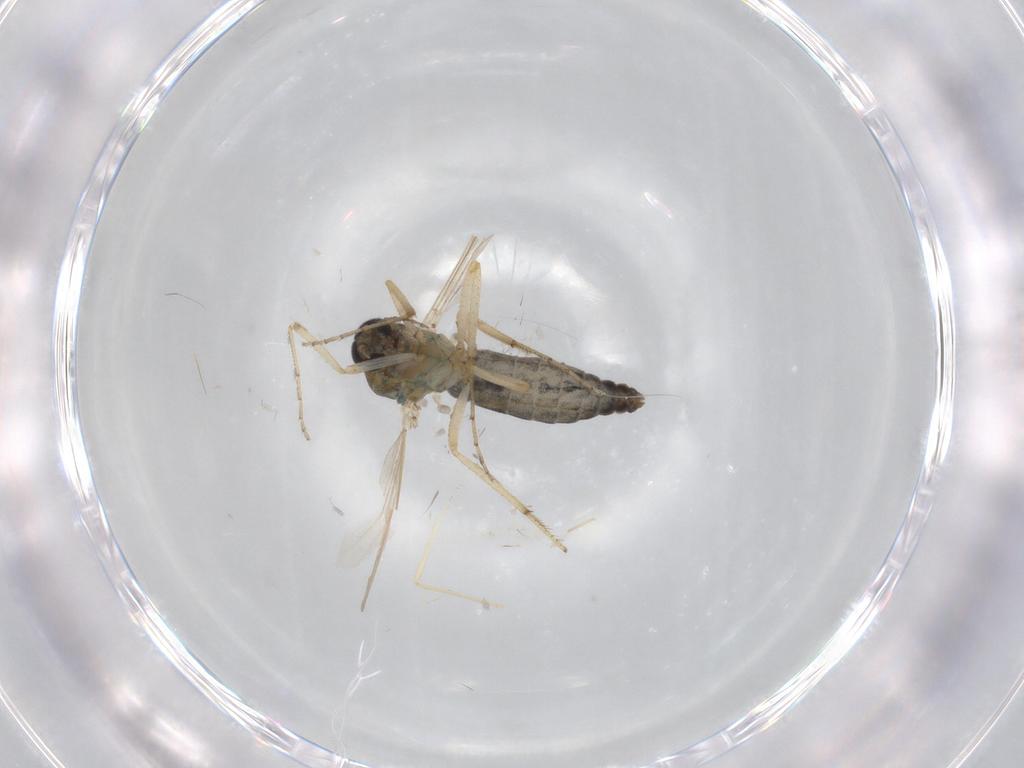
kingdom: Animalia
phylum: Arthropoda
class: Insecta
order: Diptera
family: Ceratopogonidae
